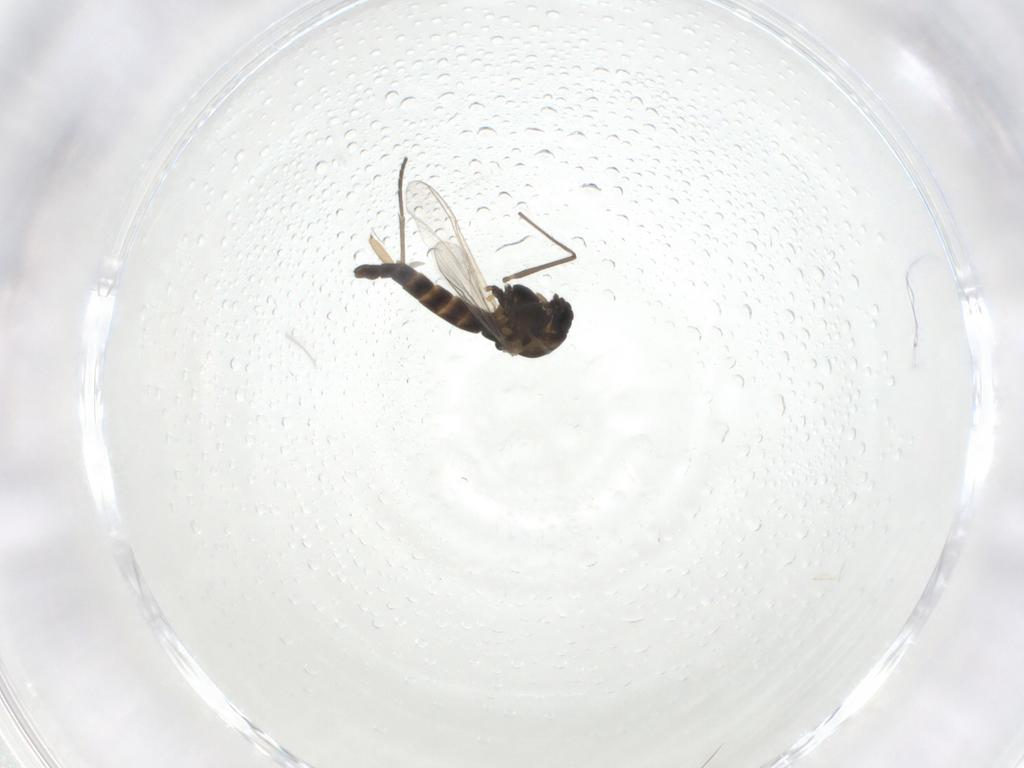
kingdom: Animalia
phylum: Arthropoda
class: Insecta
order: Diptera
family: Chironomidae
